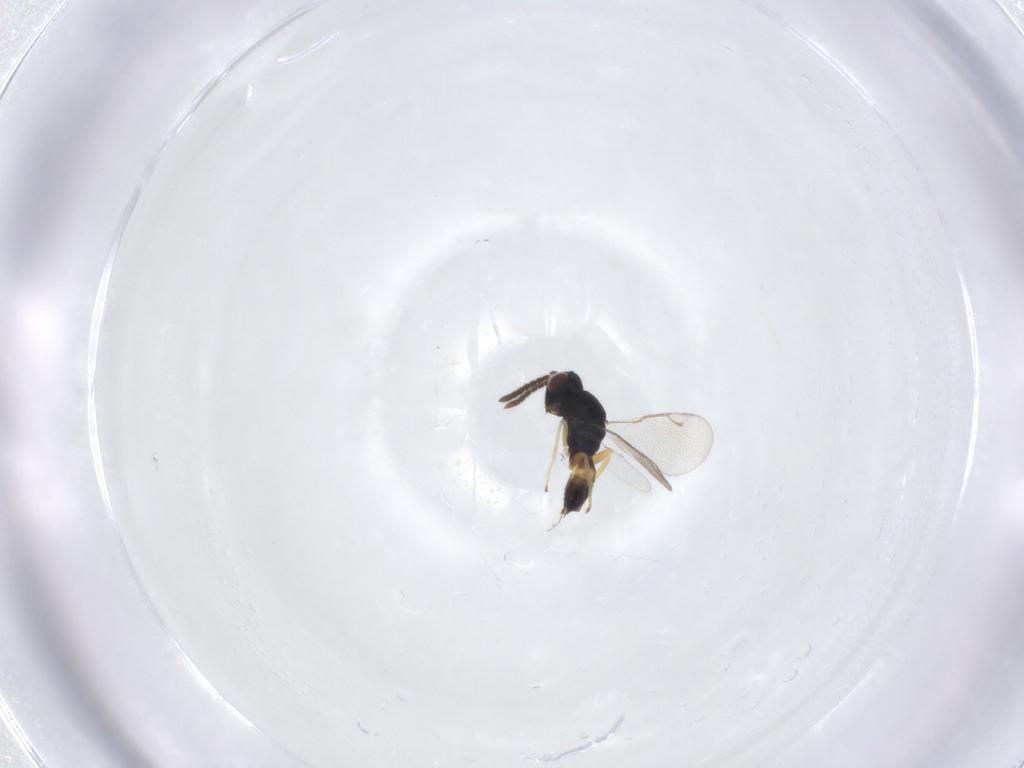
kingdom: Animalia
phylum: Arthropoda
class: Insecta
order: Hymenoptera
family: Pteromalidae
